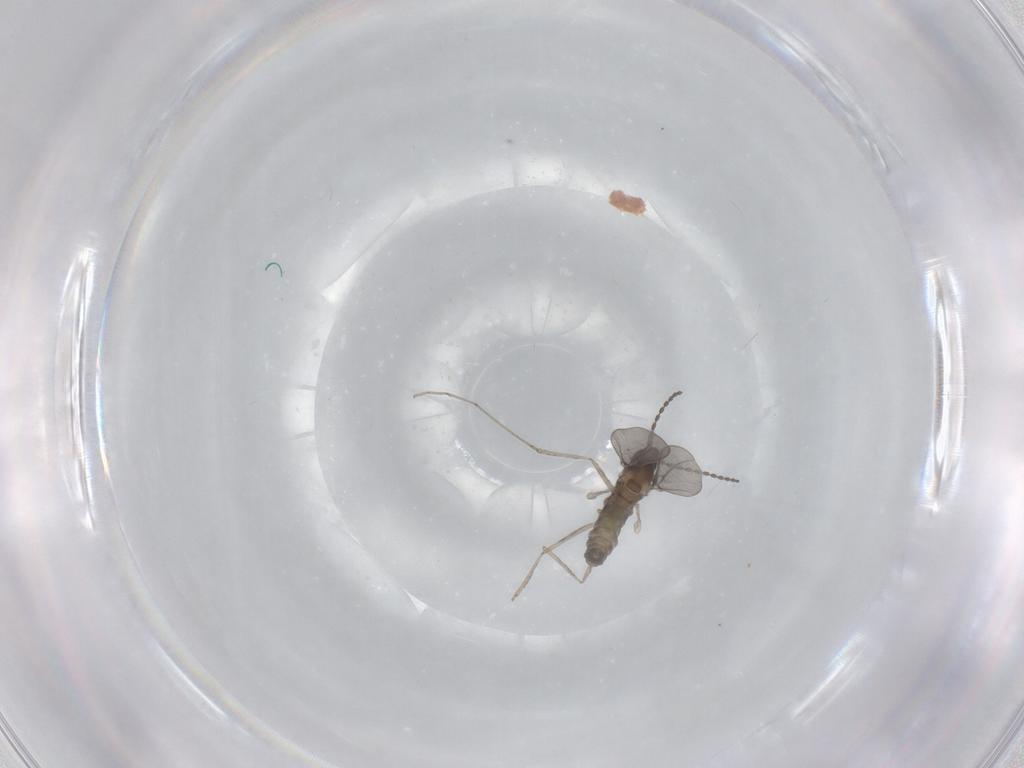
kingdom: Animalia
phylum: Arthropoda
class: Insecta
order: Diptera
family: Cecidomyiidae
